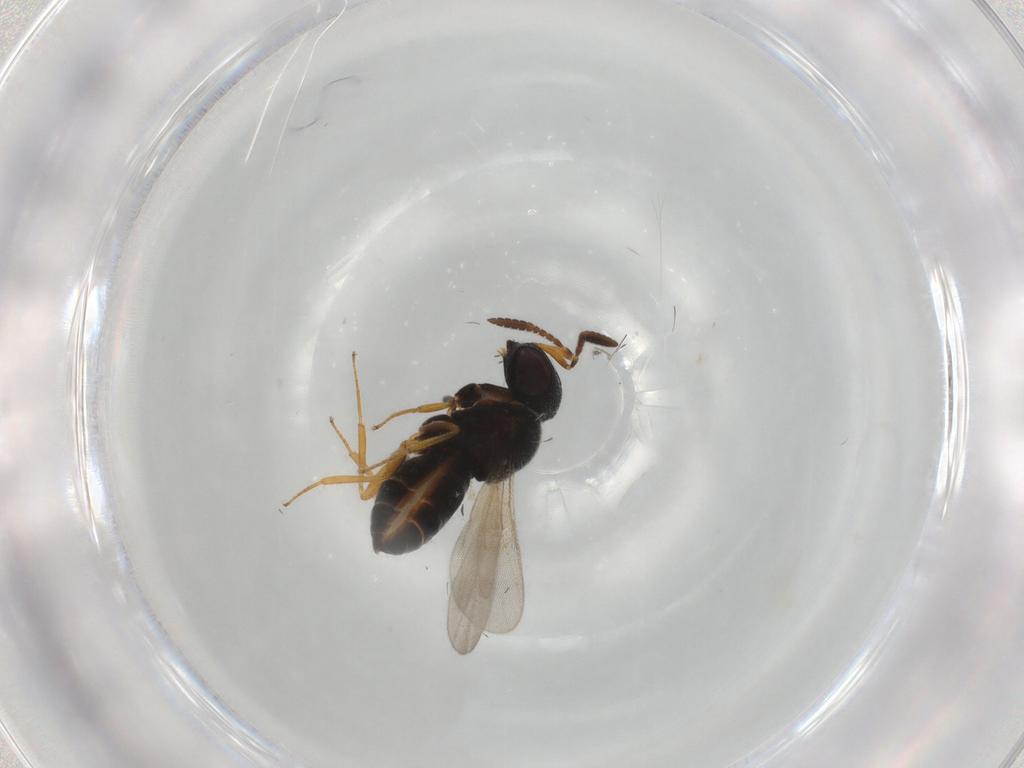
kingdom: Animalia
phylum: Arthropoda
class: Insecta
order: Hymenoptera
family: Scelionidae
